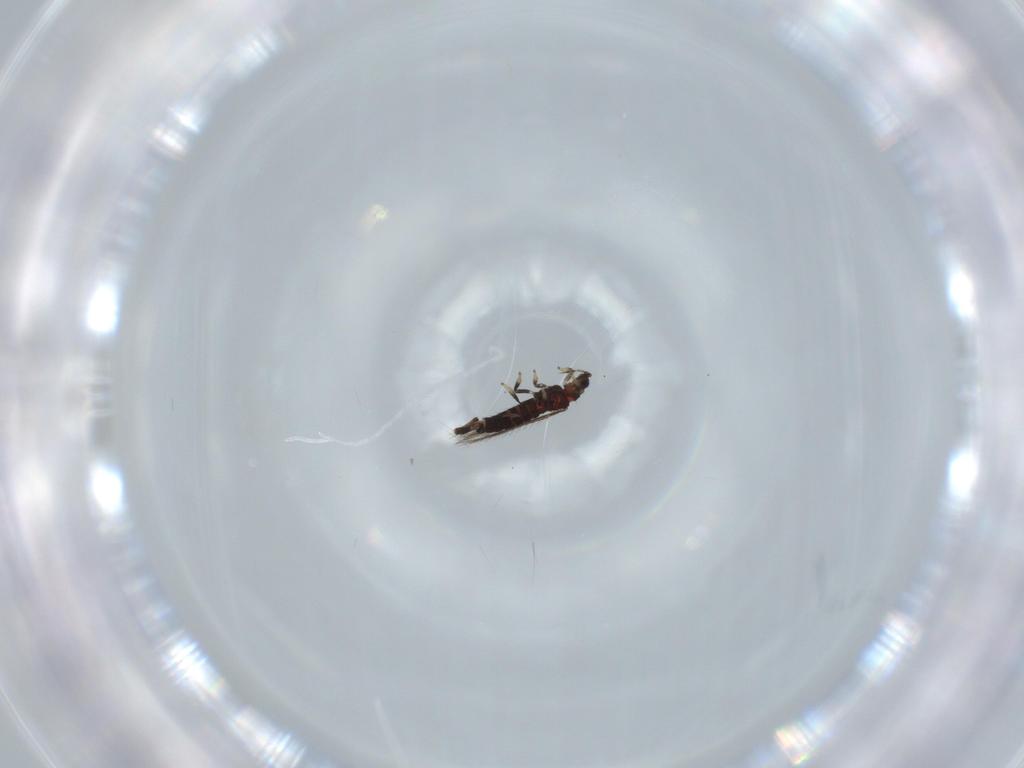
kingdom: Animalia
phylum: Arthropoda
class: Insecta
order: Thysanoptera
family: Thripidae
